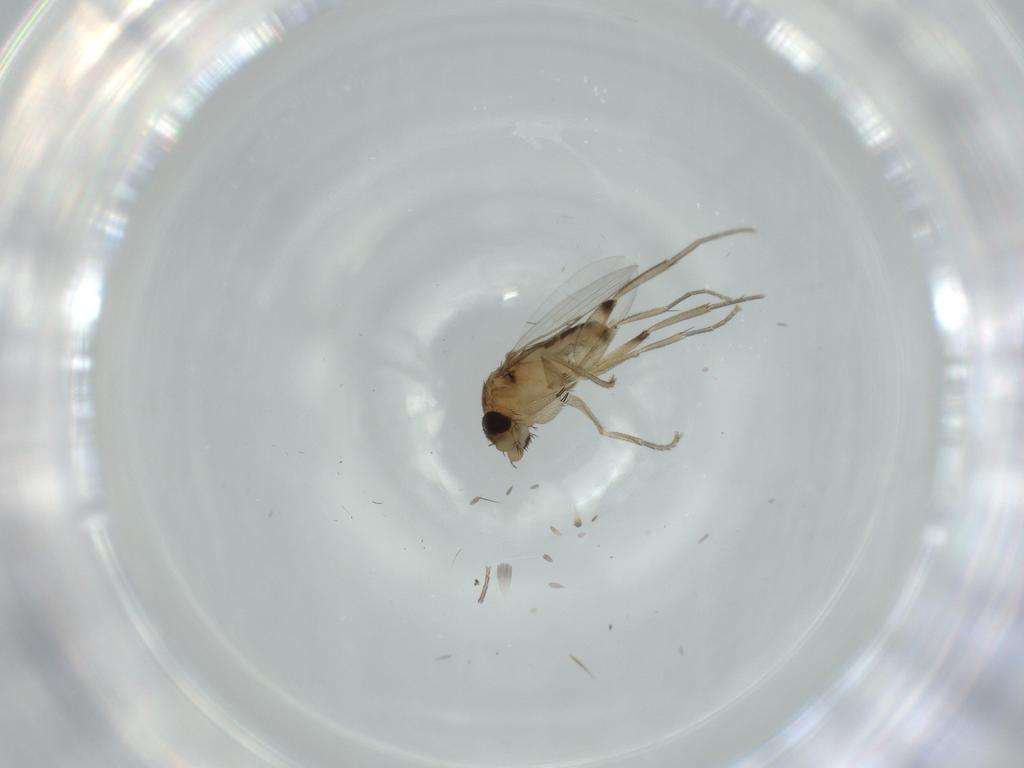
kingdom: Animalia
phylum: Arthropoda
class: Insecta
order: Diptera
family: Phoridae
